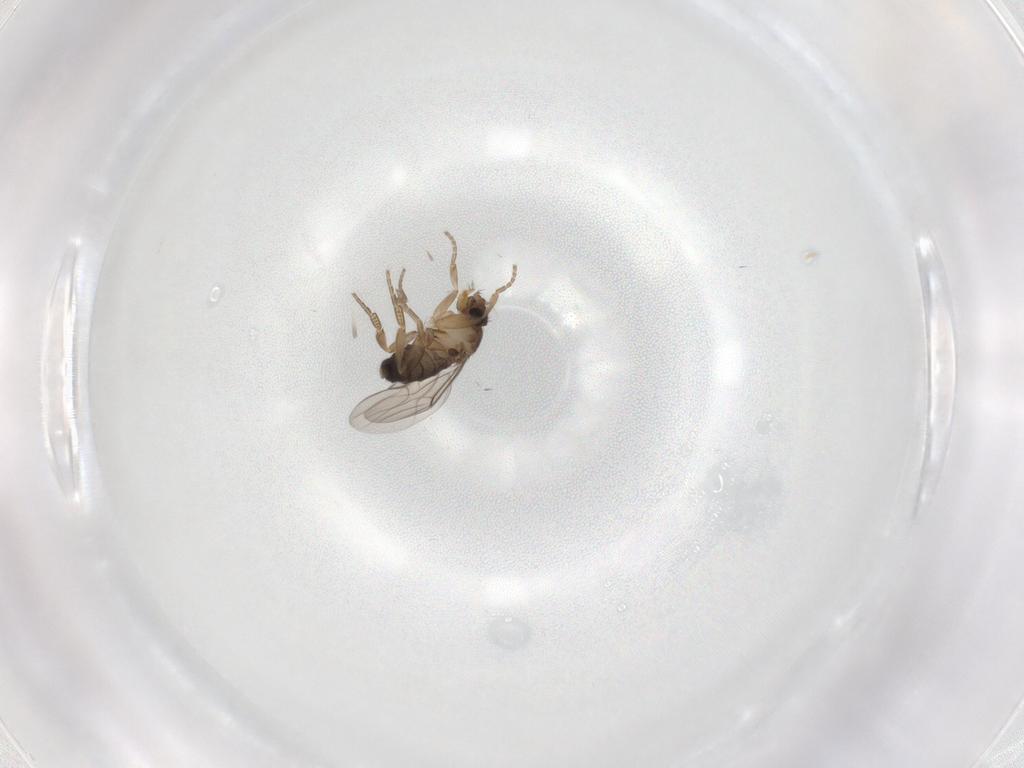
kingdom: Animalia
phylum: Arthropoda
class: Insecta
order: Diptera
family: Phoridae
